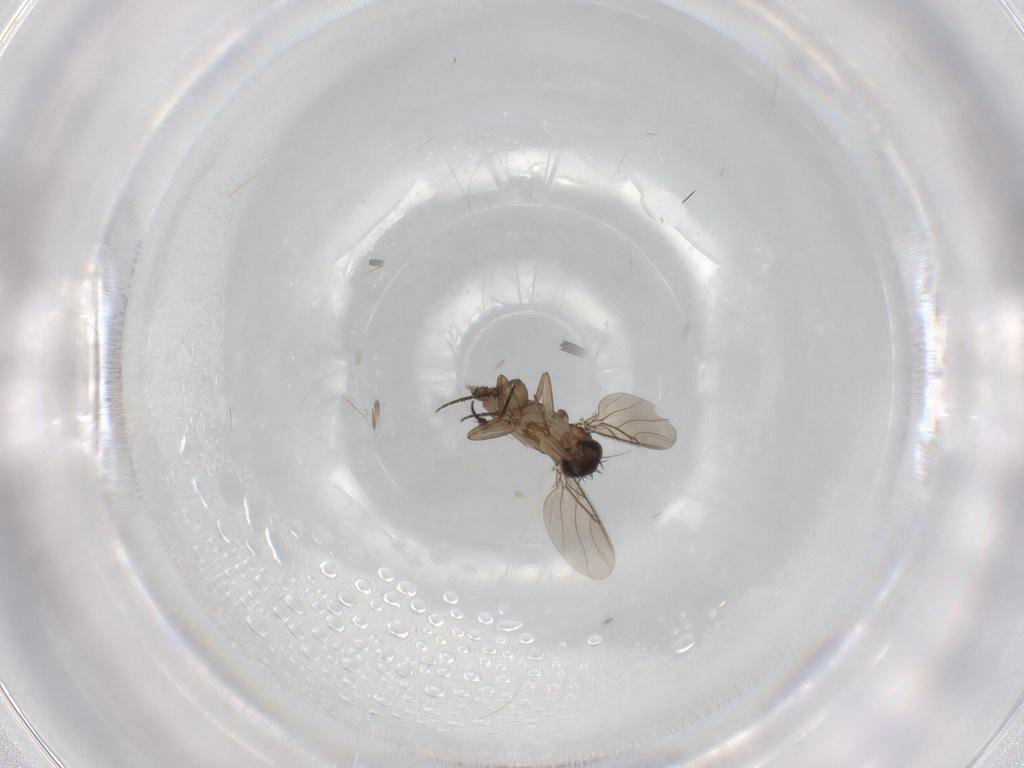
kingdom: Animalia
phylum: Arthropoda
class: Insecta
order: Diptera
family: Phoridae
